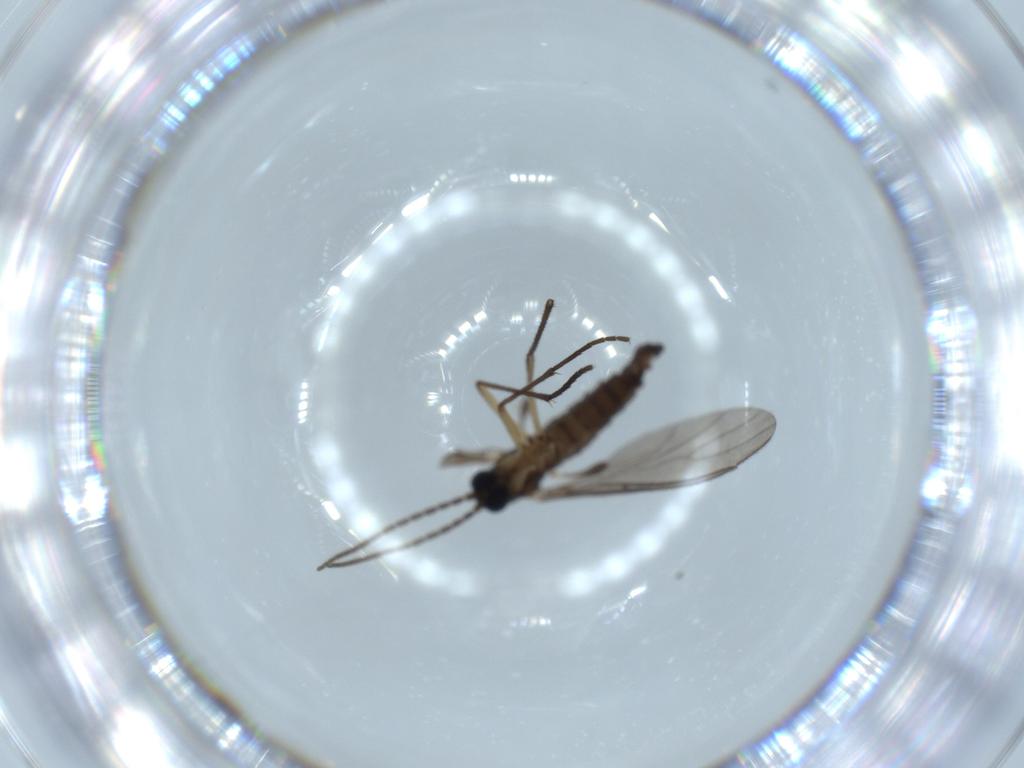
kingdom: Animalia
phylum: Arthropoda
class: Insecta
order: Diptera
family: Sciaridae
